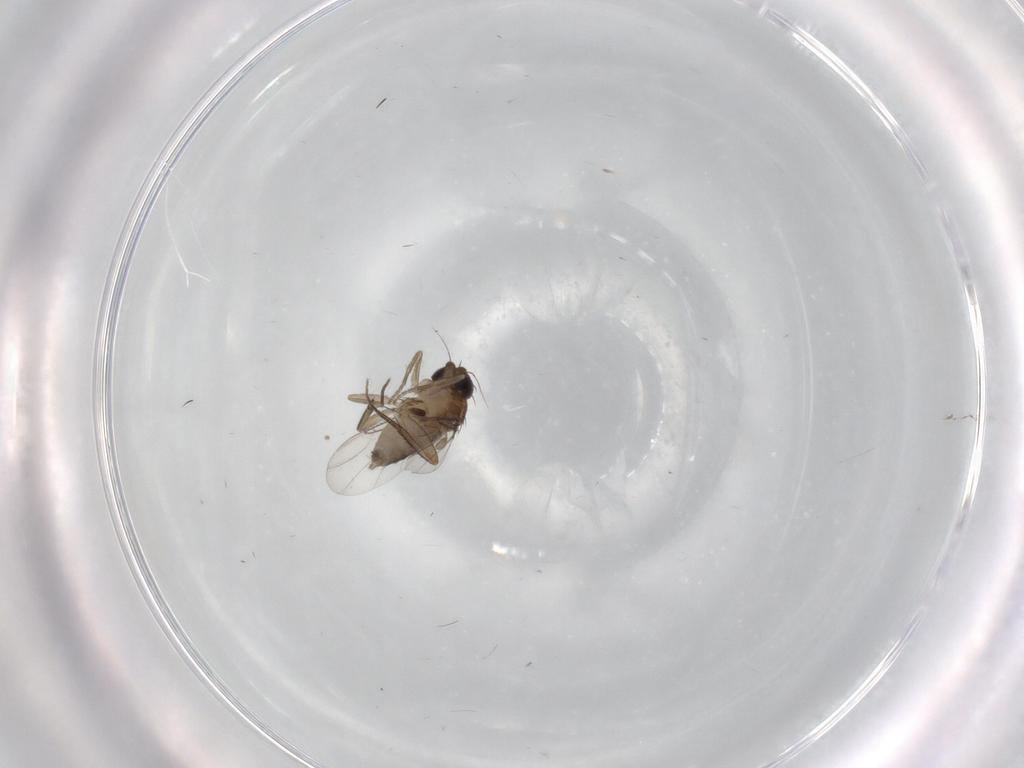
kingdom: Animalia
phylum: Arthropoda
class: Insecta
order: Diptera
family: Phoridae
